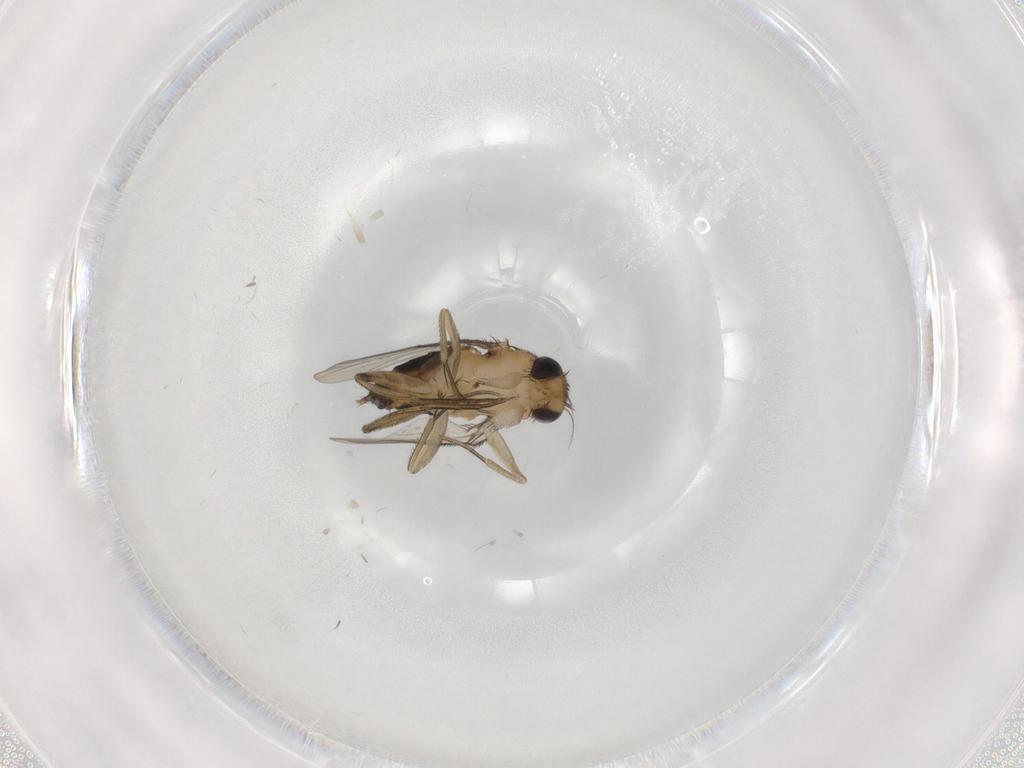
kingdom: Animalia
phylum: Arthropoda
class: Insecta
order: Diptera
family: Phoridae
